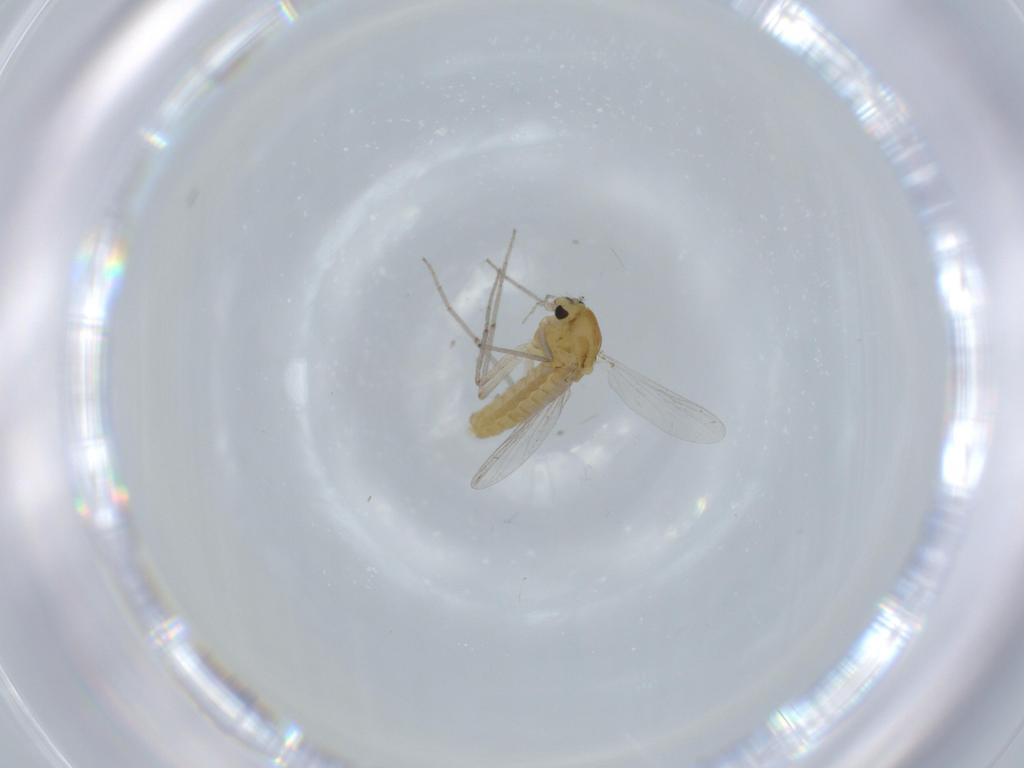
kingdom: Animalia
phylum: Arthropoda
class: Insecta
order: Diptera
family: Chironomidae
